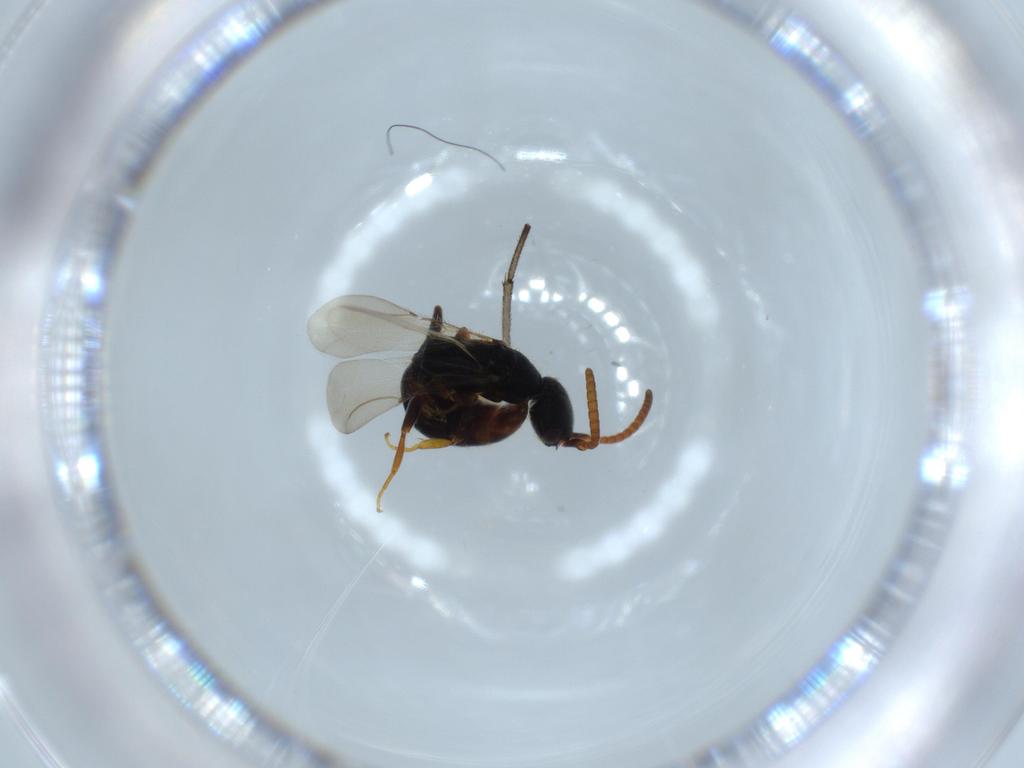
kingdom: Animalia
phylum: Arthropoda
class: Insecta
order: Hymenoptera
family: Bethylidae
